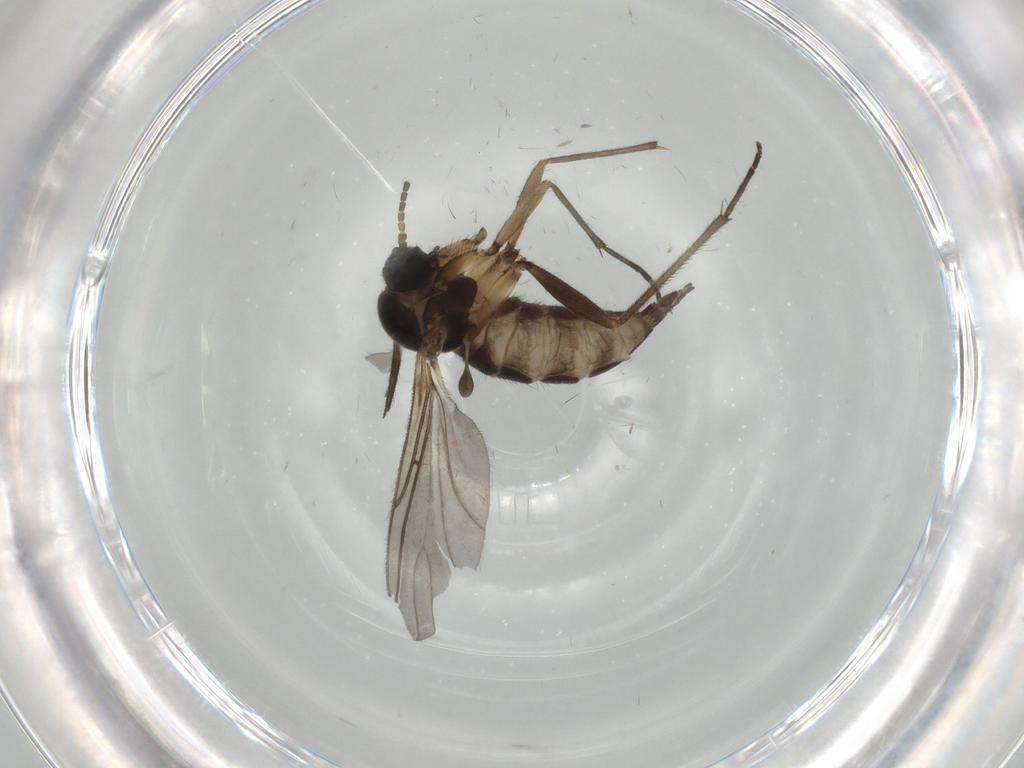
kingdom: Animalia
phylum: Arthropoda
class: Insecta
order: Diptera
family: Sciaridae
